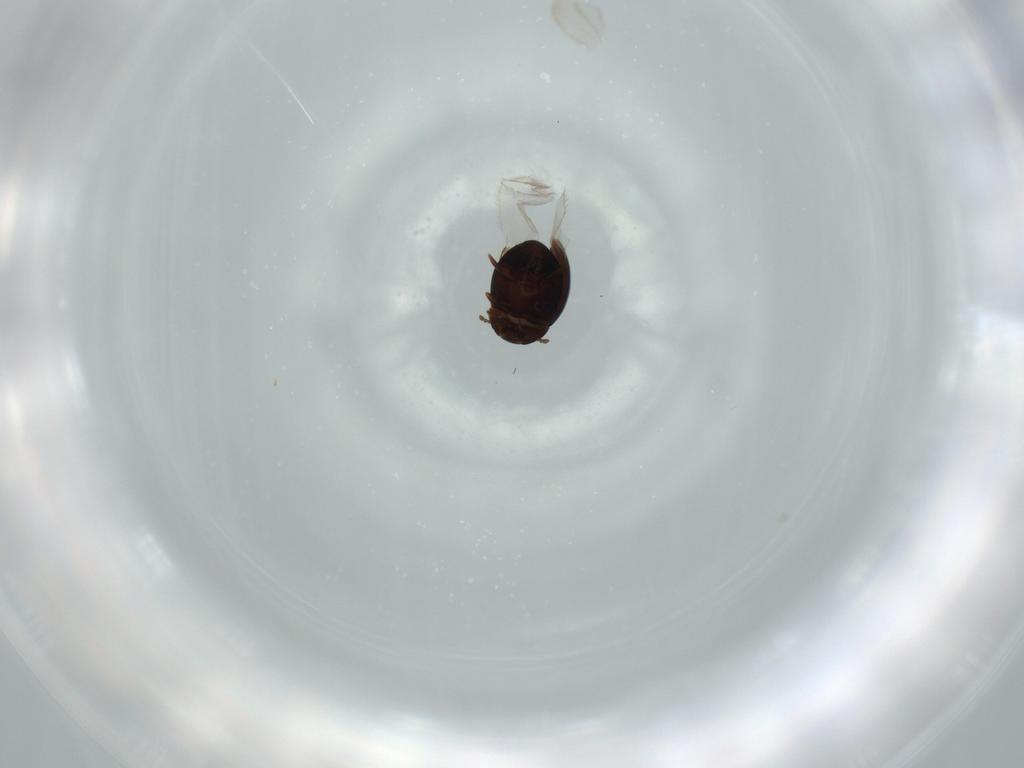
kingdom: Animalia
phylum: Arthropoda
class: Insecta
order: Coleoptera
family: Corylophidae
